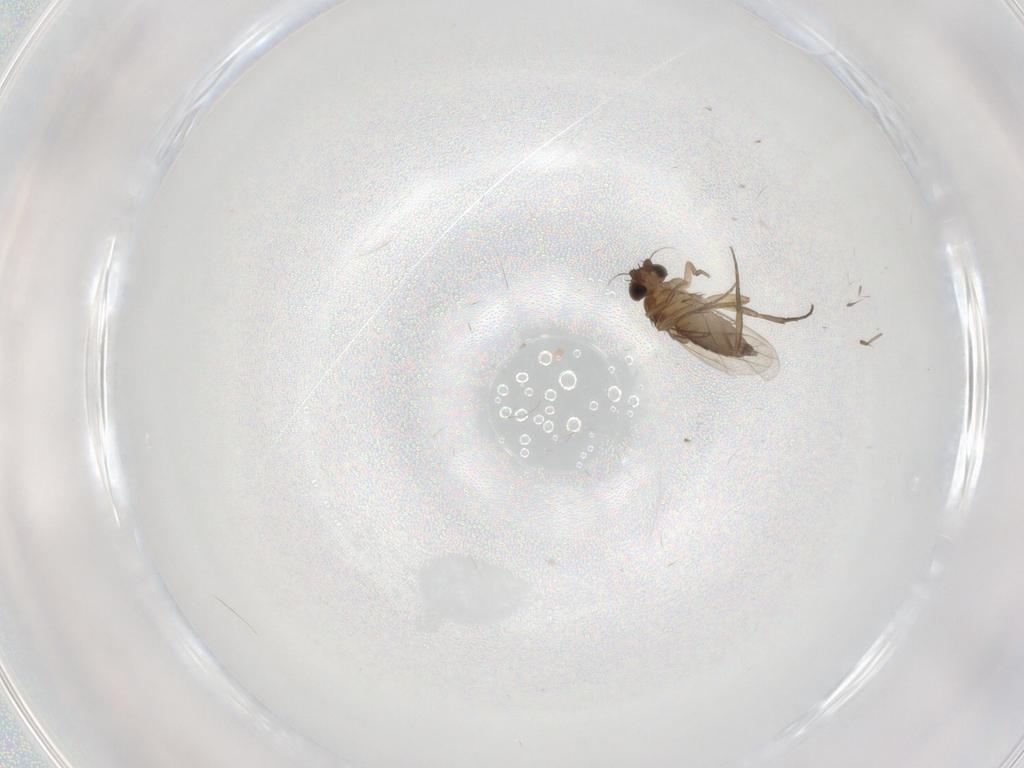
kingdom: Animalia
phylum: Arthropoda
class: Insecta
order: Diptera
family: Phoridae
